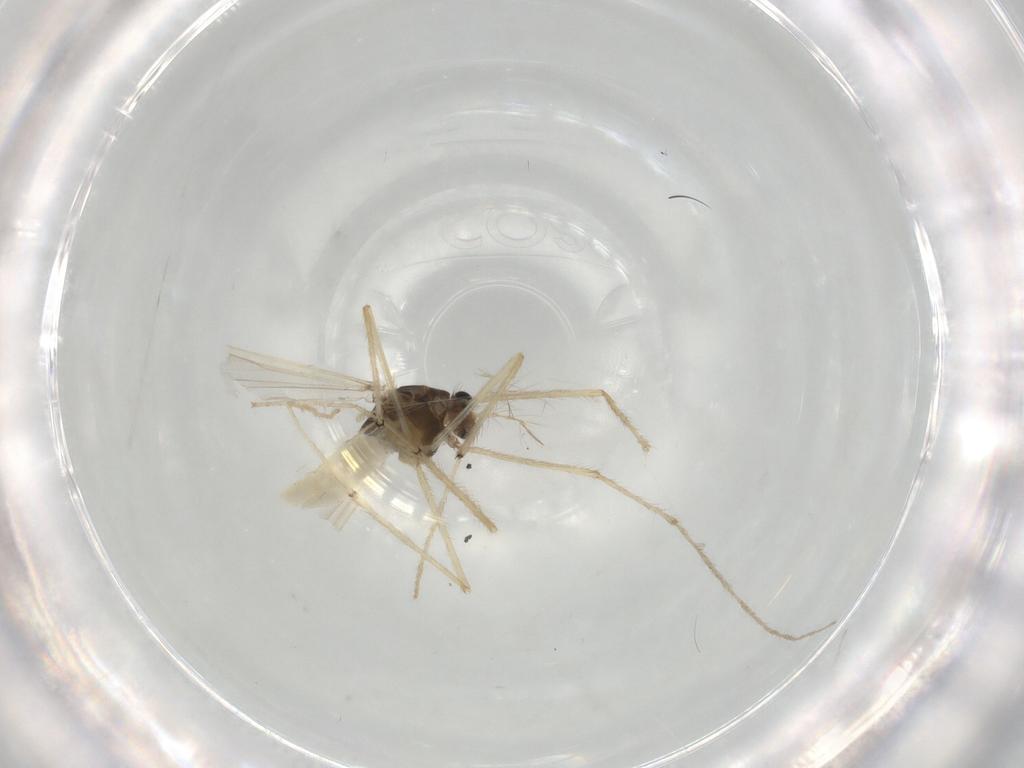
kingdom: Animalia
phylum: Arthropoda
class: Insecta
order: Diptera
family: Chironomidae
